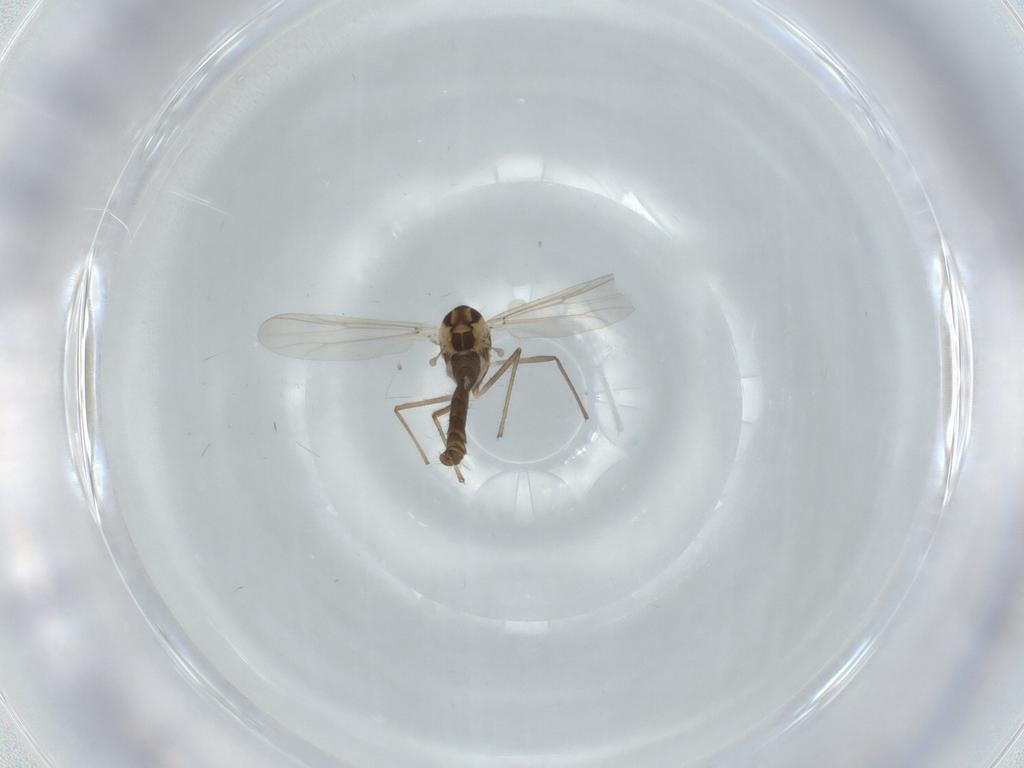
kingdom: Animalia
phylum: Arthropoda
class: Insecta
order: Diptera
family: Chironomidae
